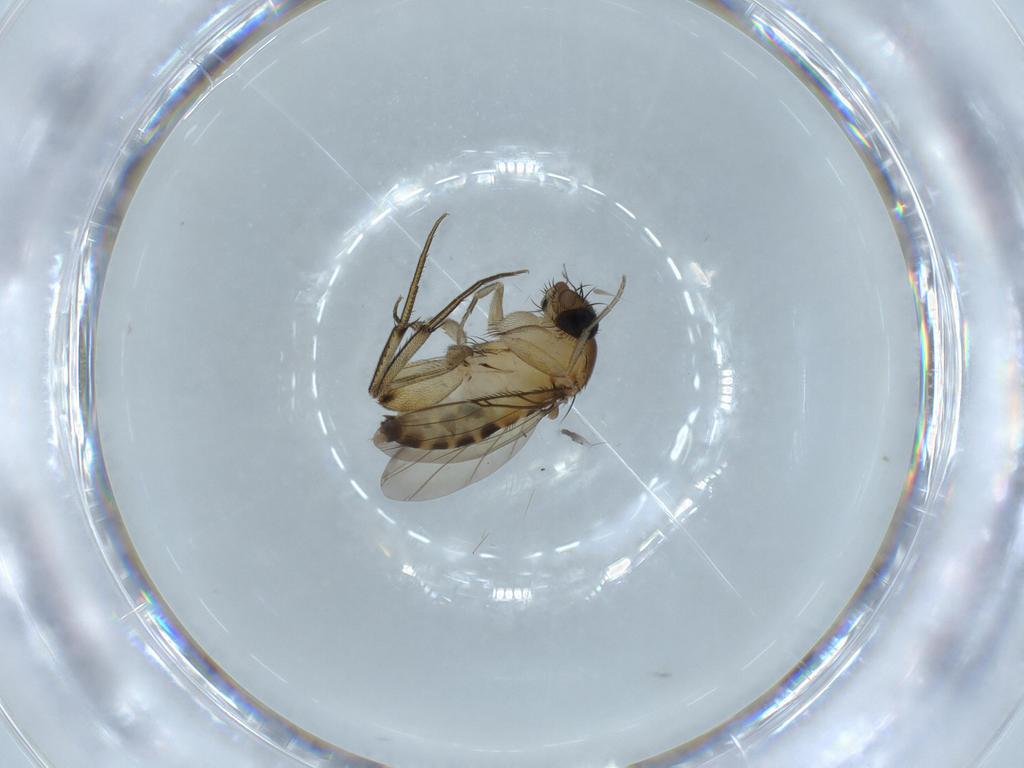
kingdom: Animalia
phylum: Arthropoda
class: Insecta
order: Diptera
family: Phoridae
